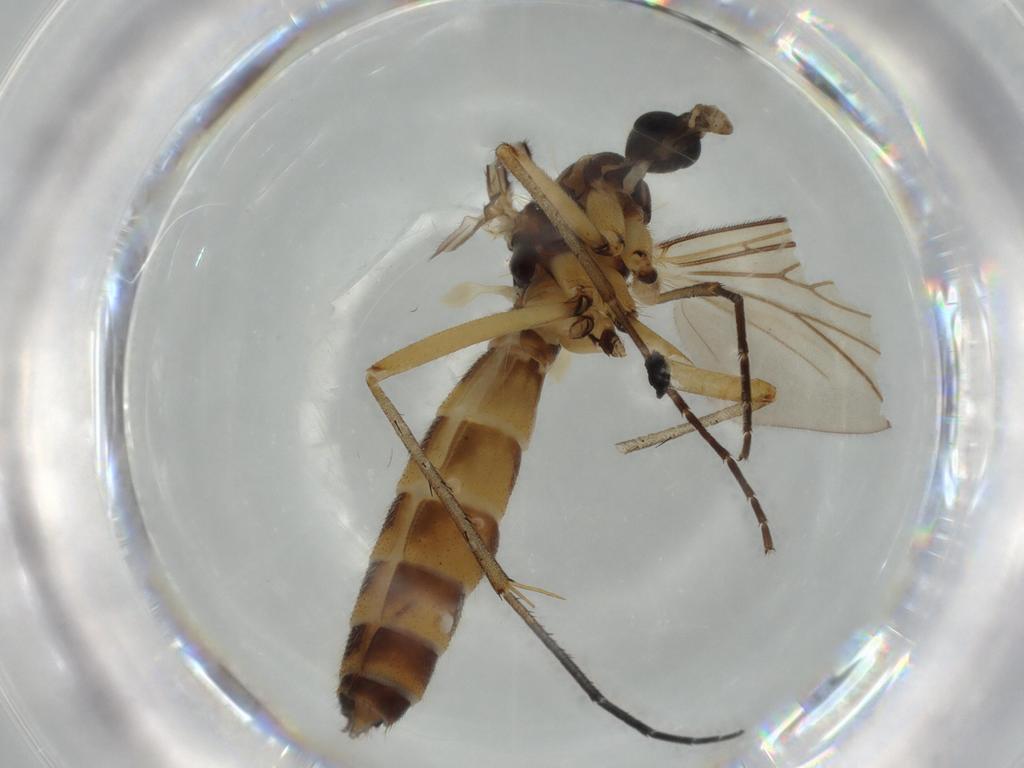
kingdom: Animalia
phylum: Arthropoda
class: Insecta
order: Diptera
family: Sciaridae
